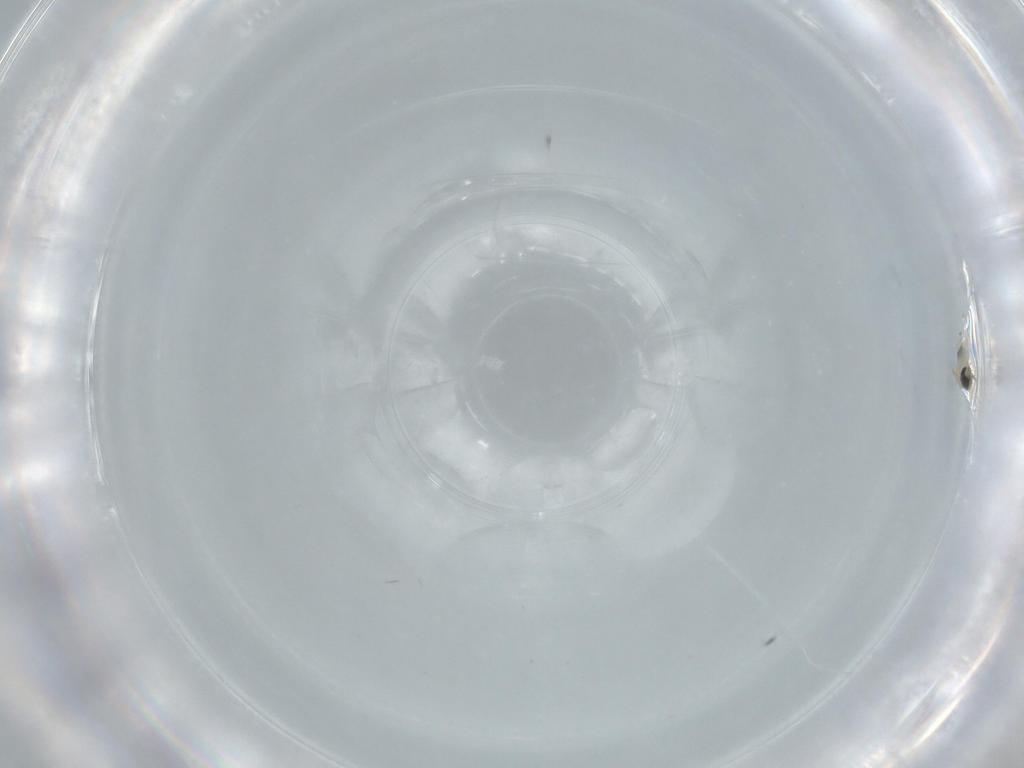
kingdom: Animalia
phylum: Arthropoda
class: Insecta
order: Diptera
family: Cecidomyiidae
